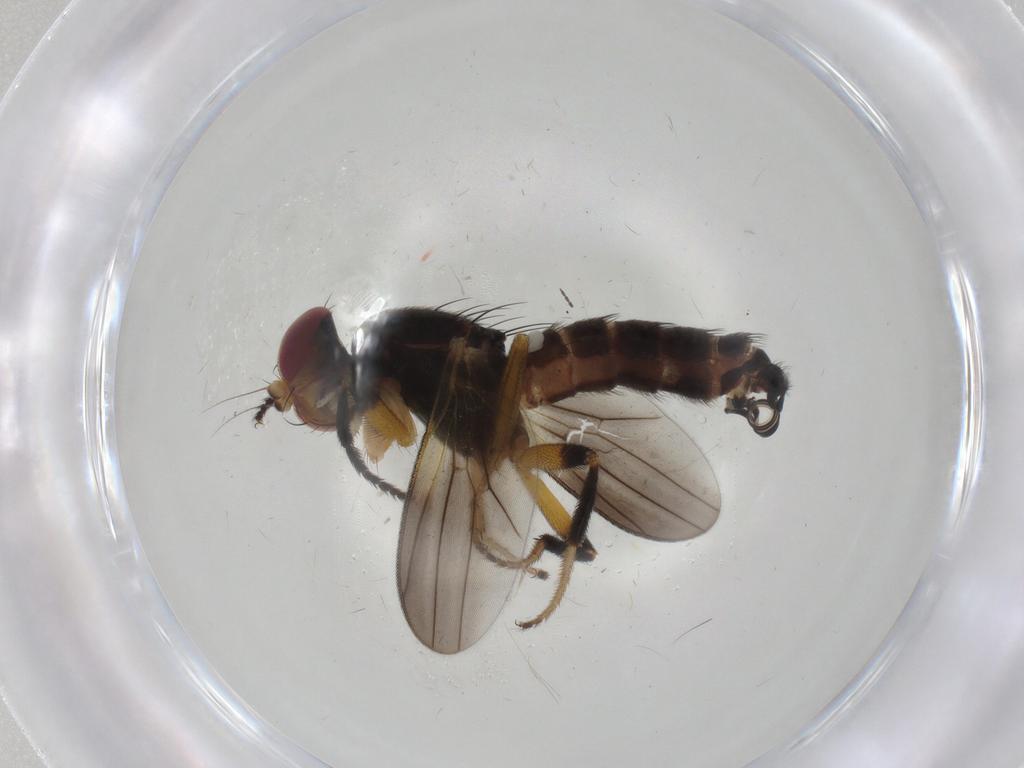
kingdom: Animalia
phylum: Arthropoda
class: Insecta
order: Diptera
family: Clusiidae
